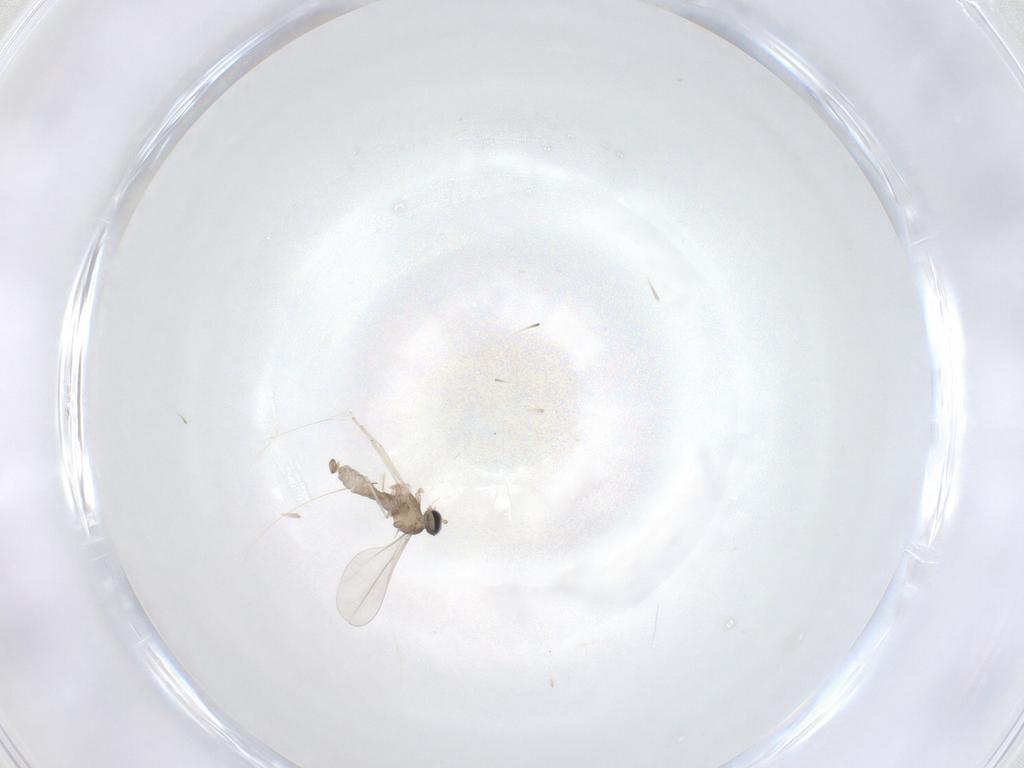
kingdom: Animalia
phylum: Arthropoda
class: Insecta
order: Diptera
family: Cecidomyiidae
